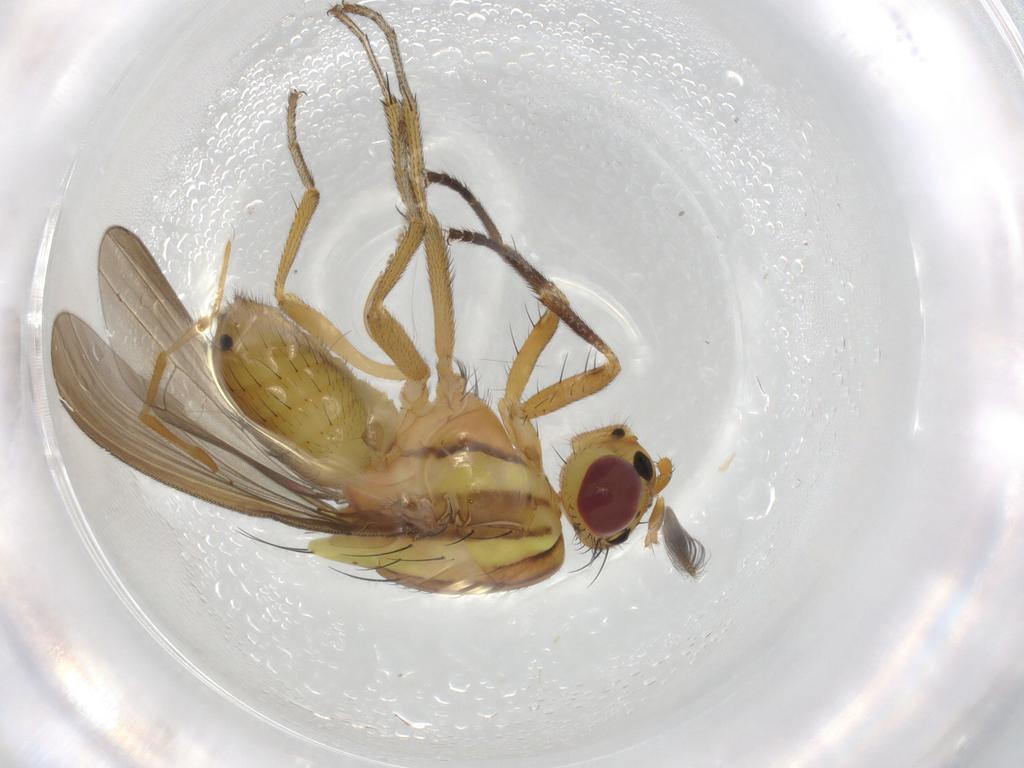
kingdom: Animalia
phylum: Arthropoda
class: Insecta
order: Diptera
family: Lauxaniidae
